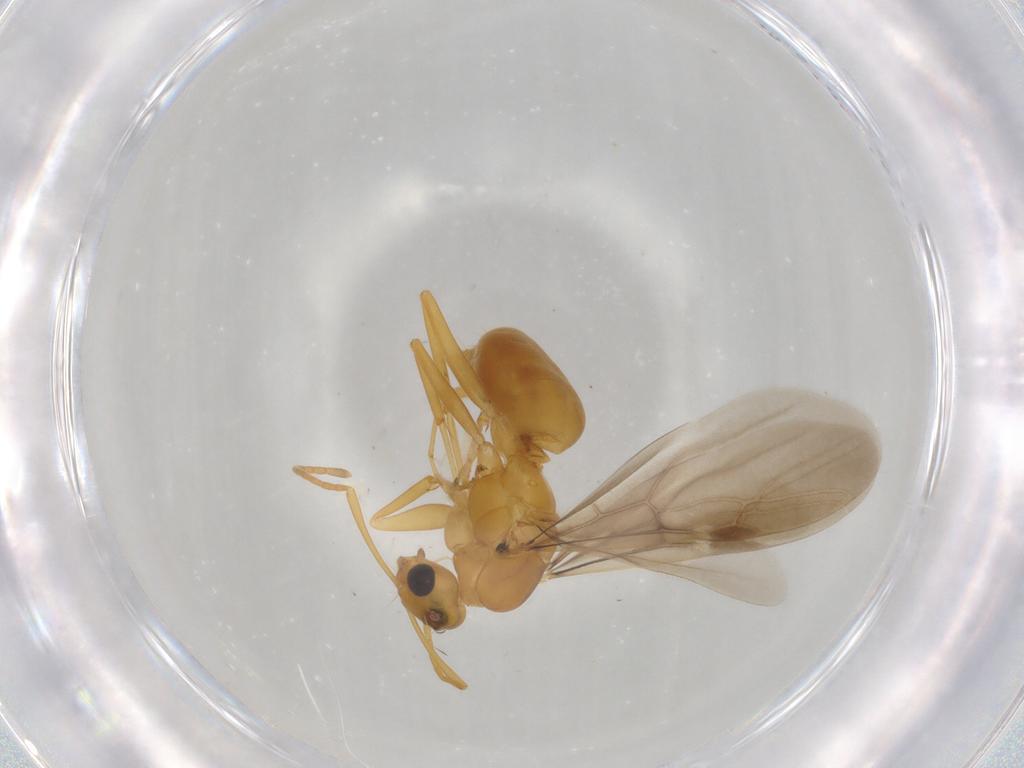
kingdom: Animalia
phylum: Arthropoda
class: Insecta
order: Hymenoptera
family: Formicidae
